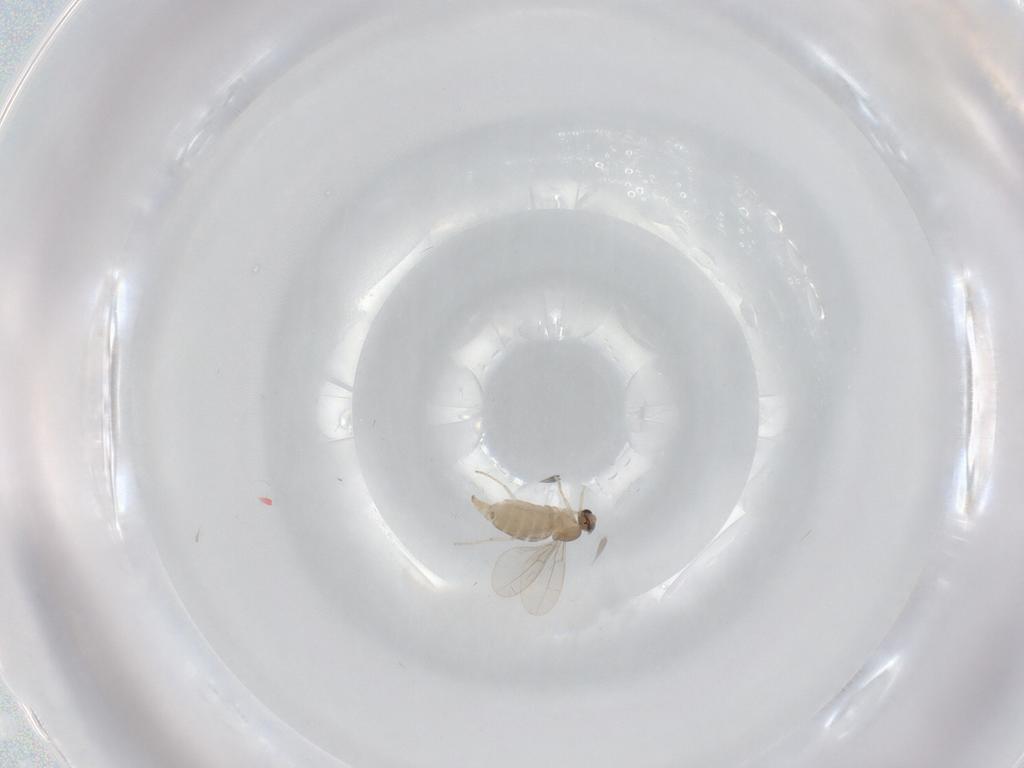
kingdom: Animalia
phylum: Arthropoda
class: Insecta
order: Diptera
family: Cecidomyiidae
